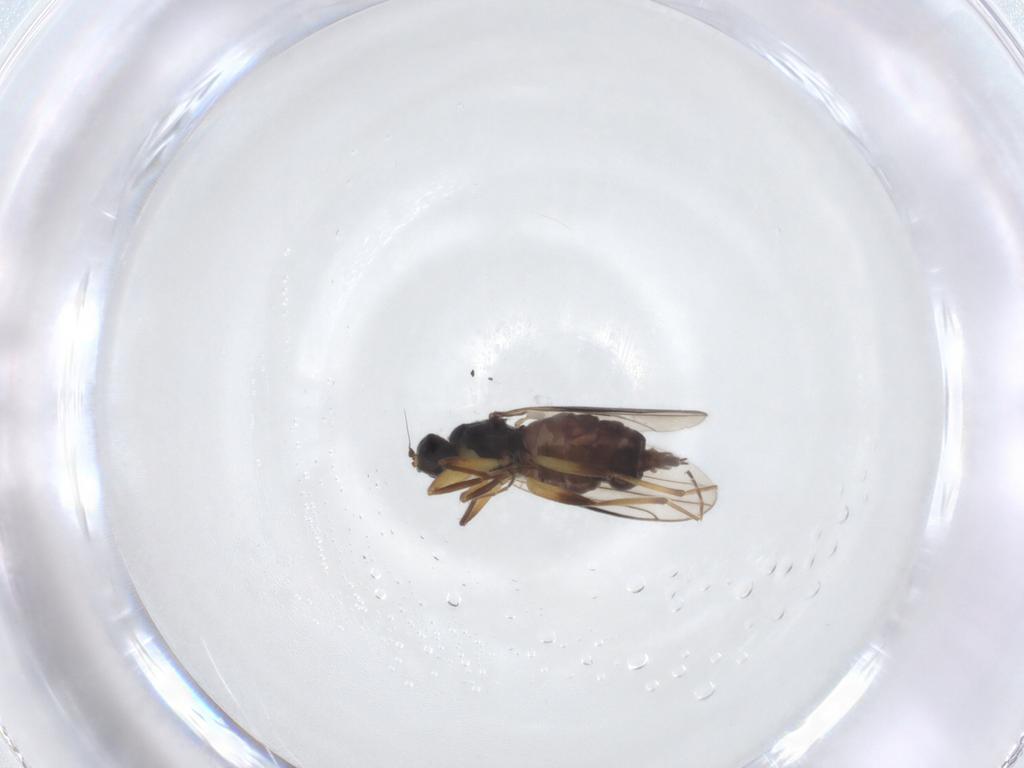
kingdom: Animalia
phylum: Arthropoda
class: Insecta
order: Diptera
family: Hybotidae
